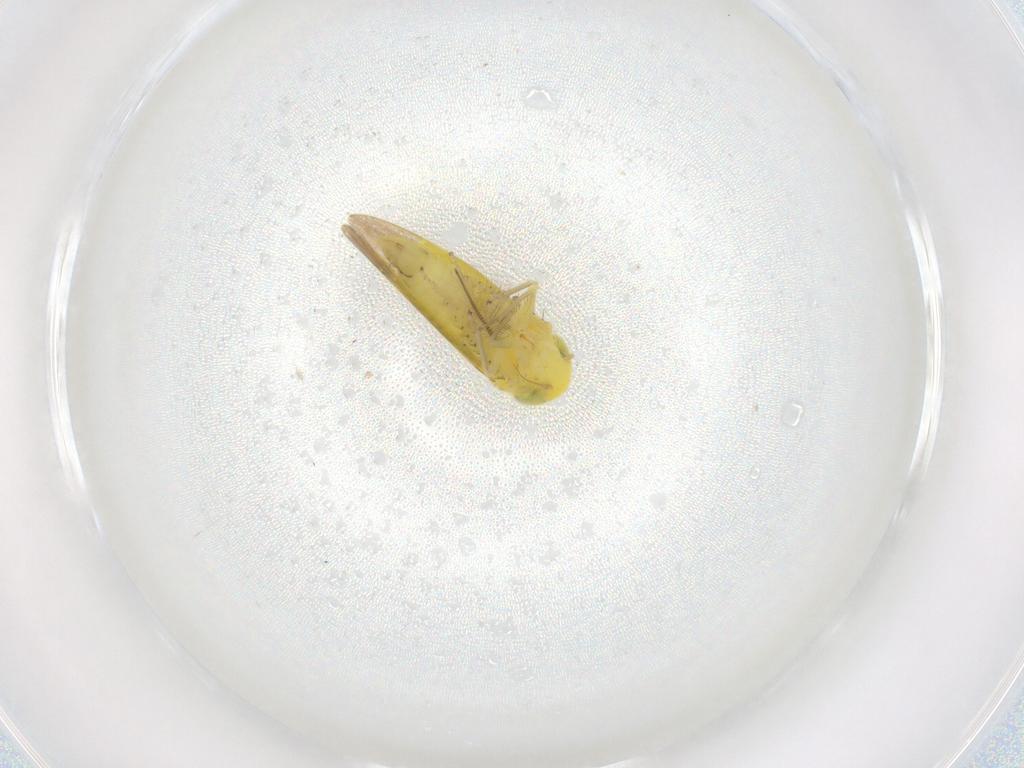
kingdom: Animalia
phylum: Arthropoda
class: Insecta
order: Hemiptera
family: Cicadellidae
